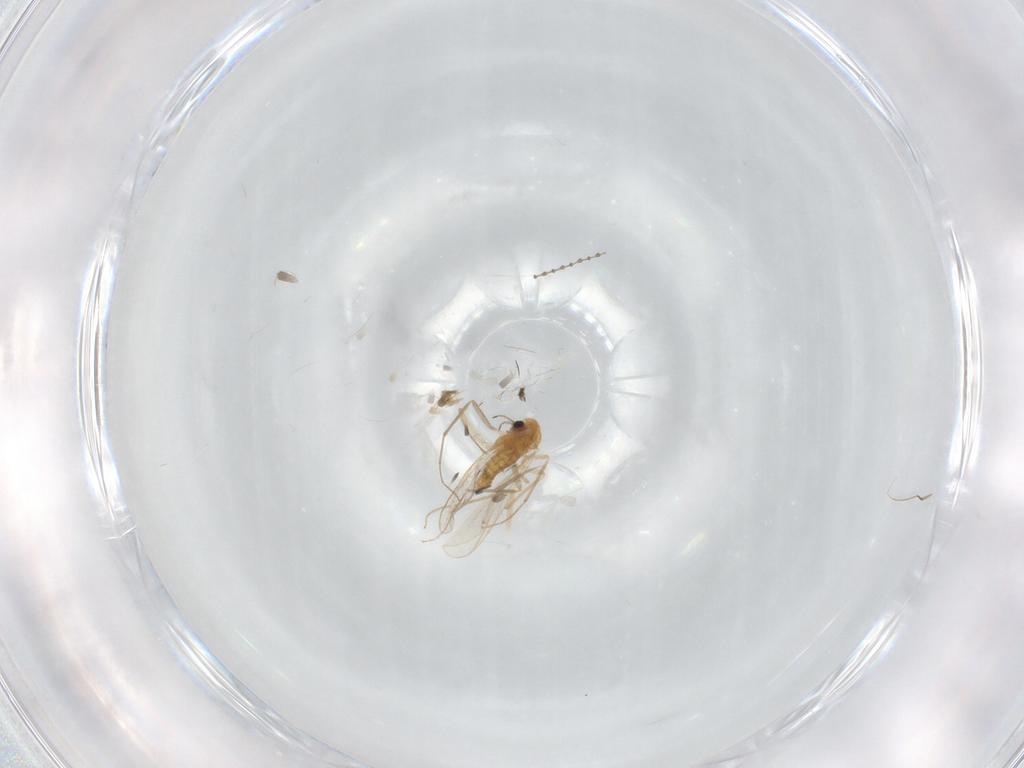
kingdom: Animalia
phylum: Arthropoda
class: Insecta
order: Diptera
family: Chironomidae
